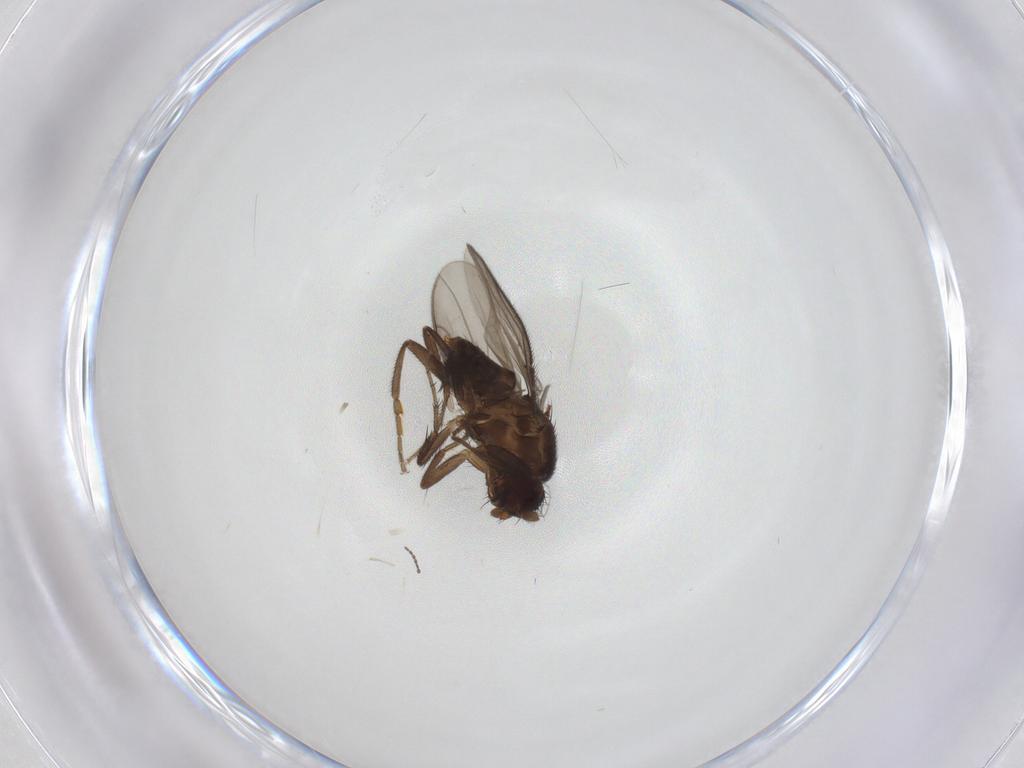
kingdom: Animalia
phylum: Arthropoda
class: Insecta
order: Diptera
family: Sphaeroceridae
